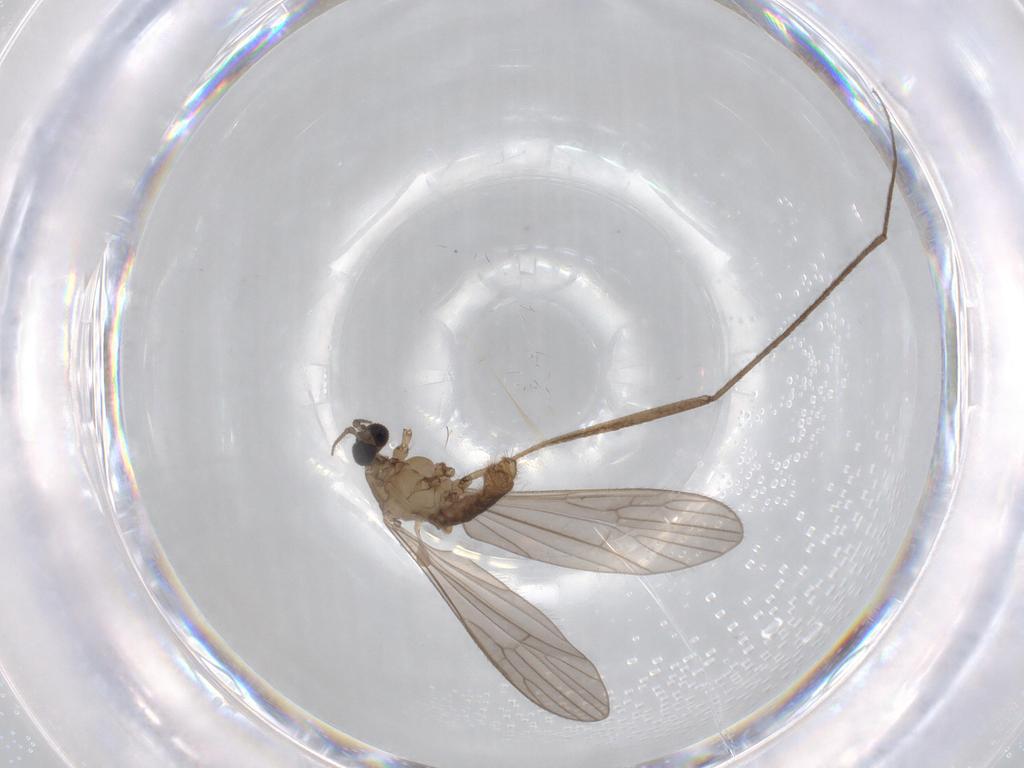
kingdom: Animalia
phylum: Arthropoda
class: Insecta
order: Diptera
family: Chironomidae
